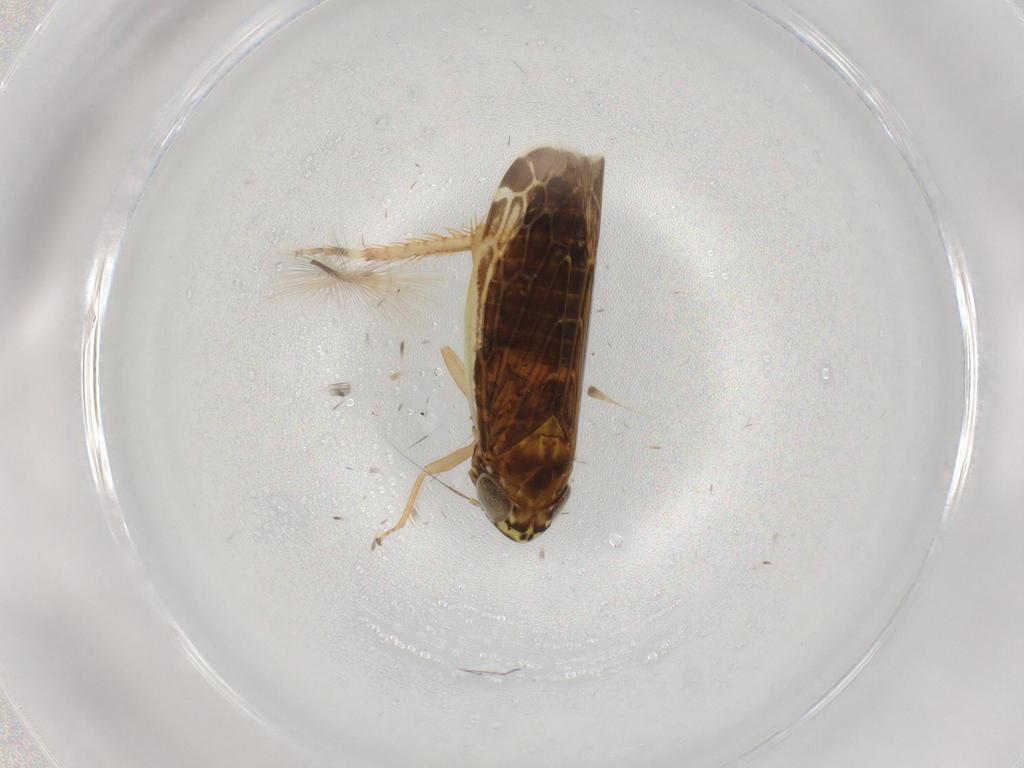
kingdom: Animalia
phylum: Arthropoda
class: Insecta
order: Hemiptera
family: Cicadellidae
